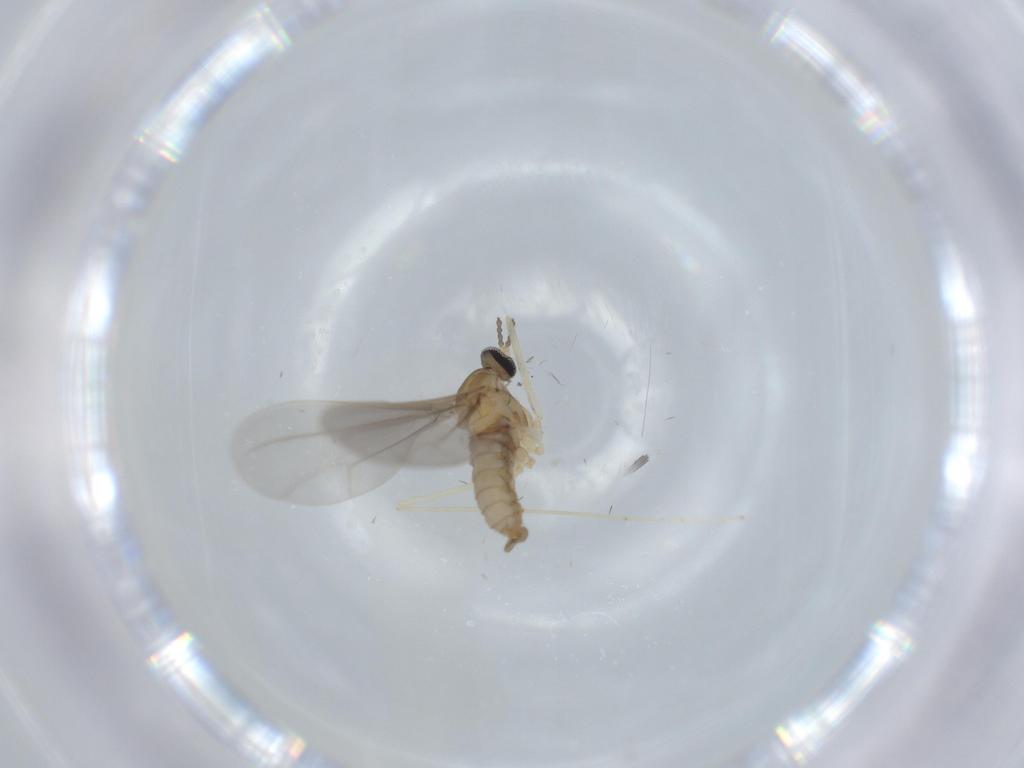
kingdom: Animalia
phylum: Arthropoda
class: Insecta
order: Diptera
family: Cecidomyiidae
